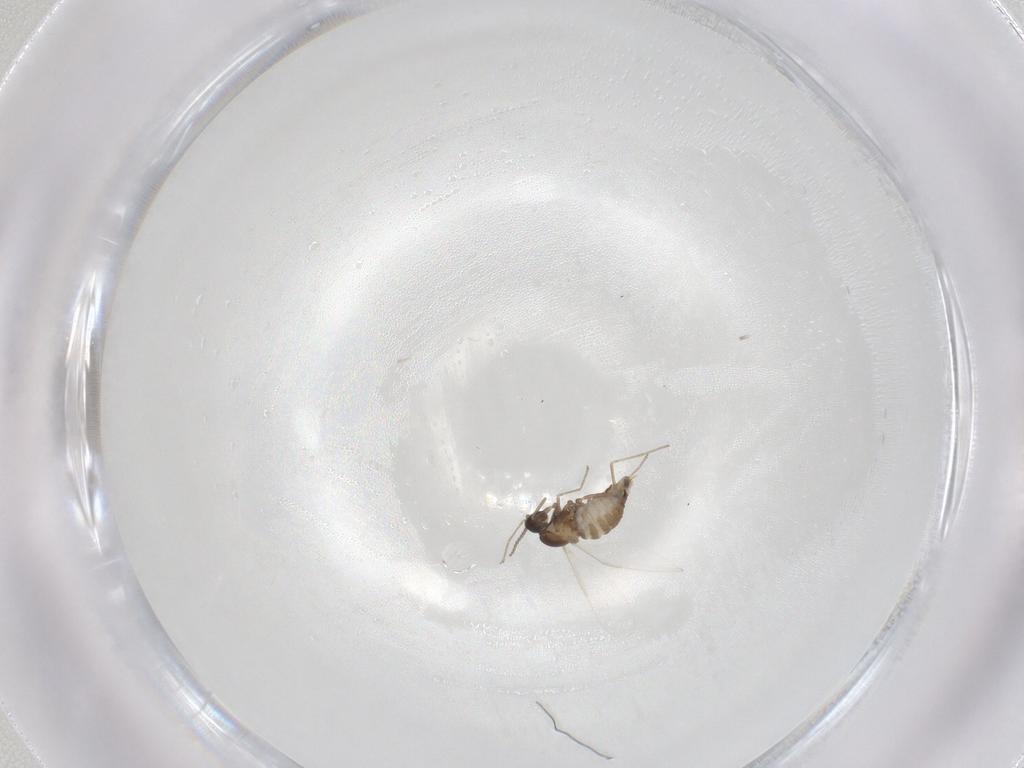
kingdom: Animalia
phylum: Arthropoda
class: Insecta
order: Diptera
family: Cecidomyiidae
